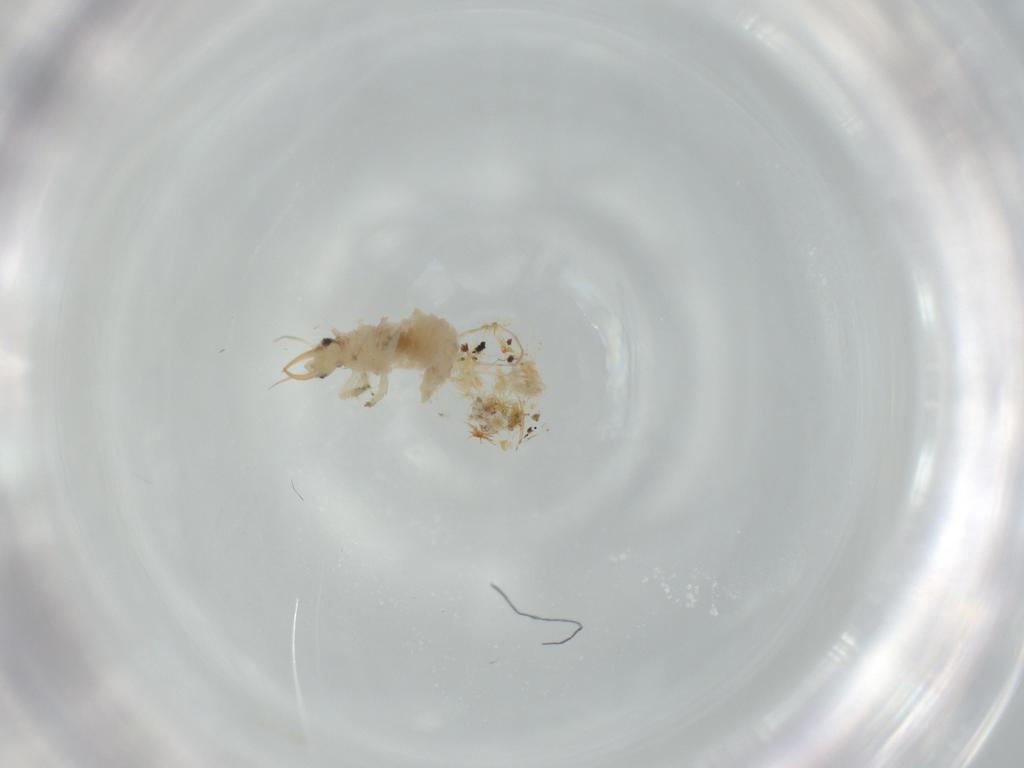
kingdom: Animalia
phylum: Arthropoda
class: Insecta
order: Neuroptera
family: Chrysopidae
